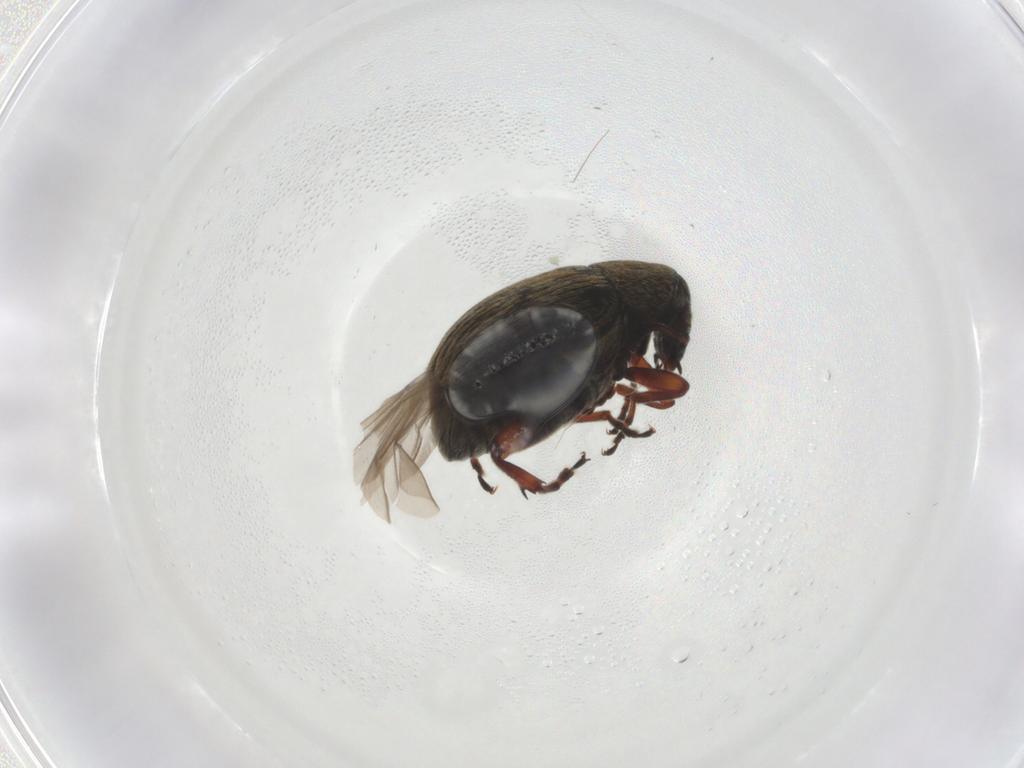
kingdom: Animalia
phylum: Arthropoda
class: Insecta
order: Coleoptera
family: Chrysomelidae
